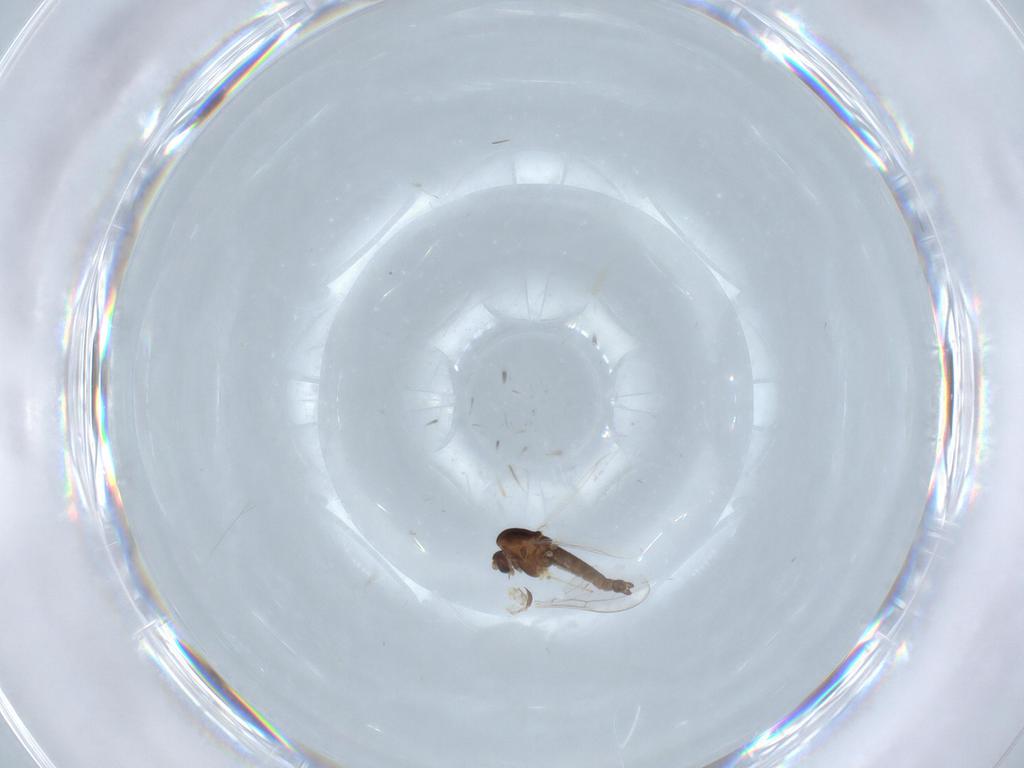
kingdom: Animalia
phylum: Arthropoda
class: Insecta
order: Diptera
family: Chironomidae
